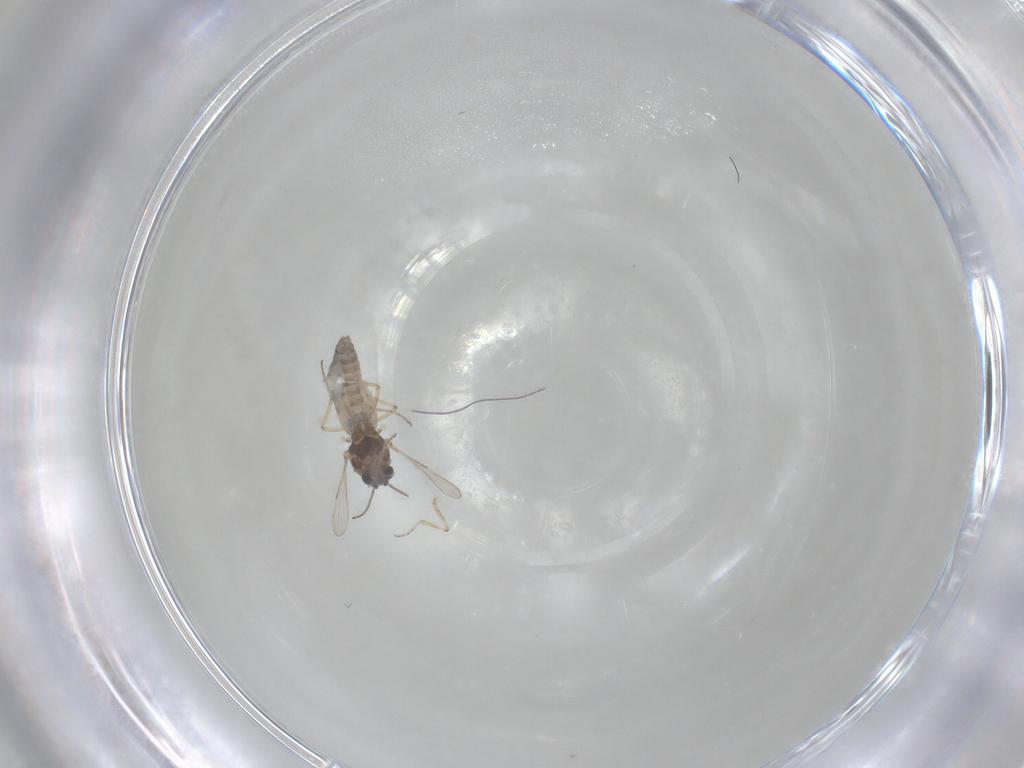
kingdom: Animalia
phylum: Arthropoda
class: Insecta
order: Diptera
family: Ceratopogonidae
